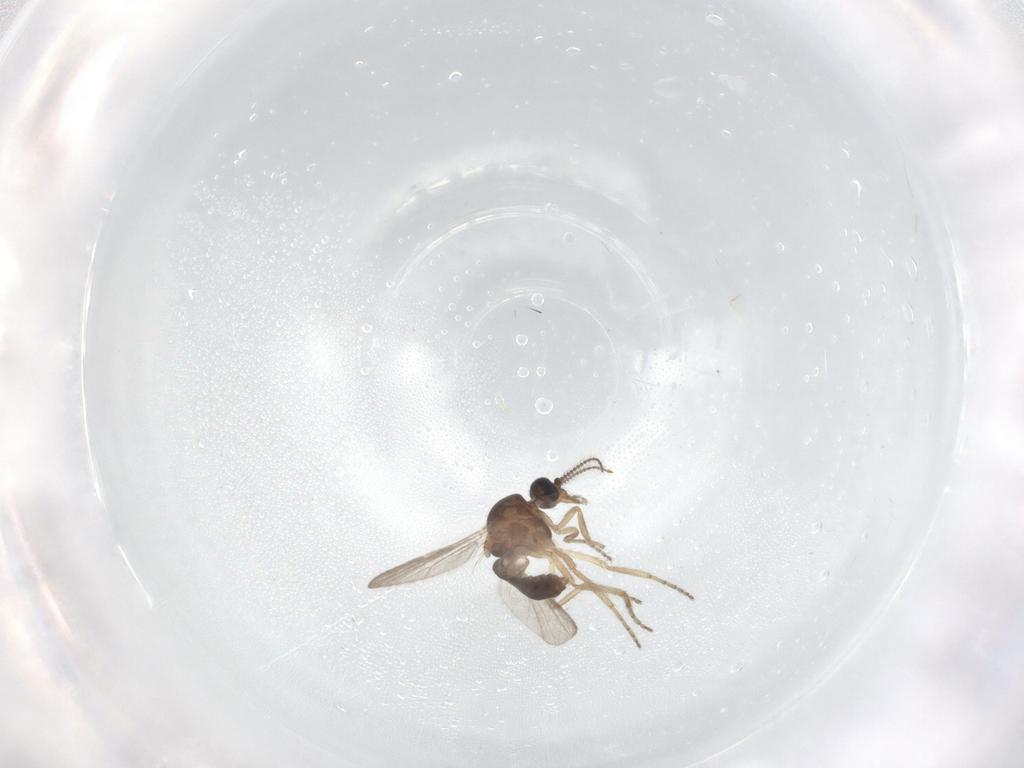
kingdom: Animalia
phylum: Arthropoda
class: Insecta
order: Diptera
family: Ceratopogonidae
